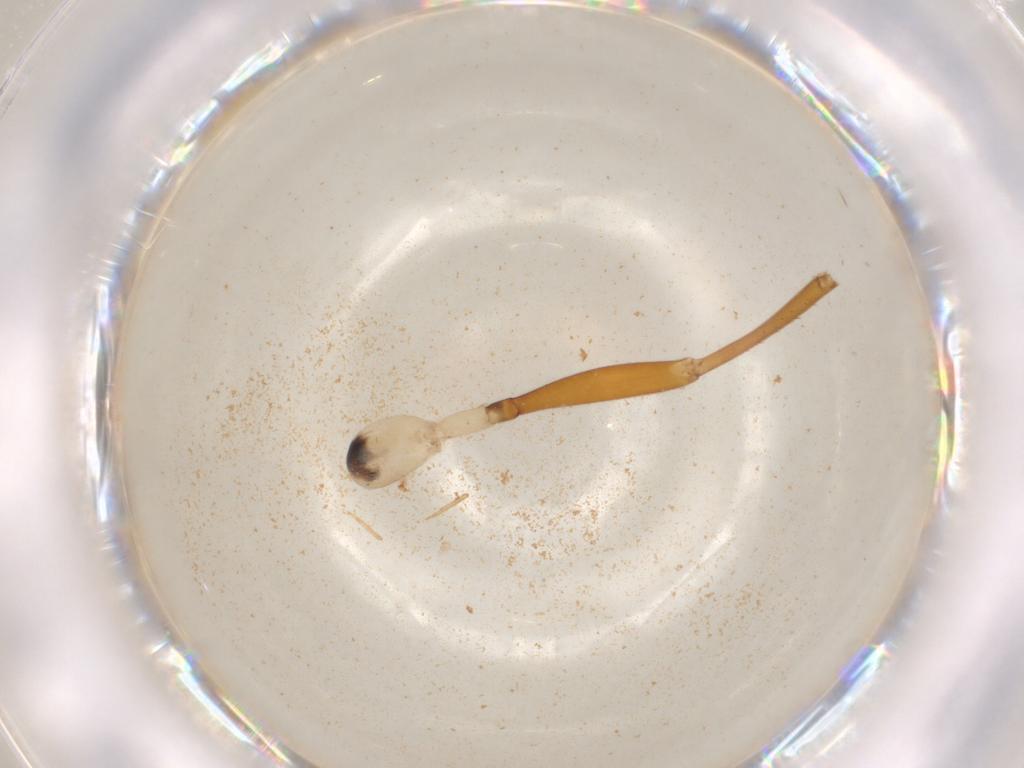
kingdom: Animalia
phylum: Arthropoda
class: Insecta
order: Hymenoptera
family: Ichneumonidae
